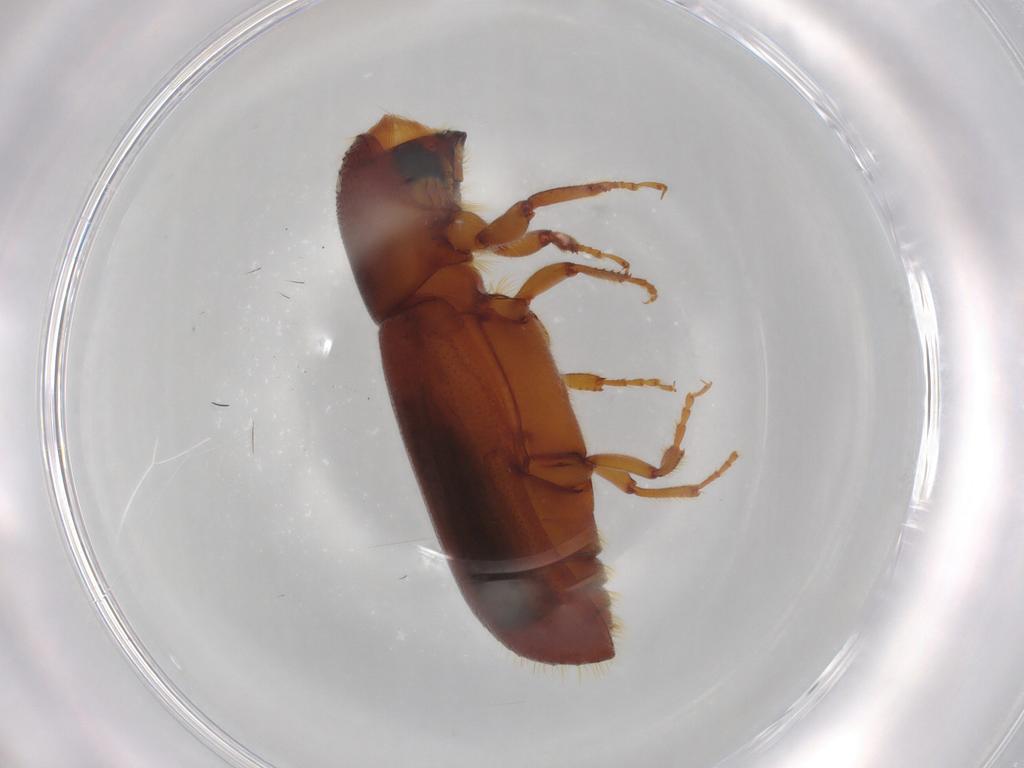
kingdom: Animalia
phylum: Arthropoda
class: Insecta
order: Coleoptera
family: Curculionidae
